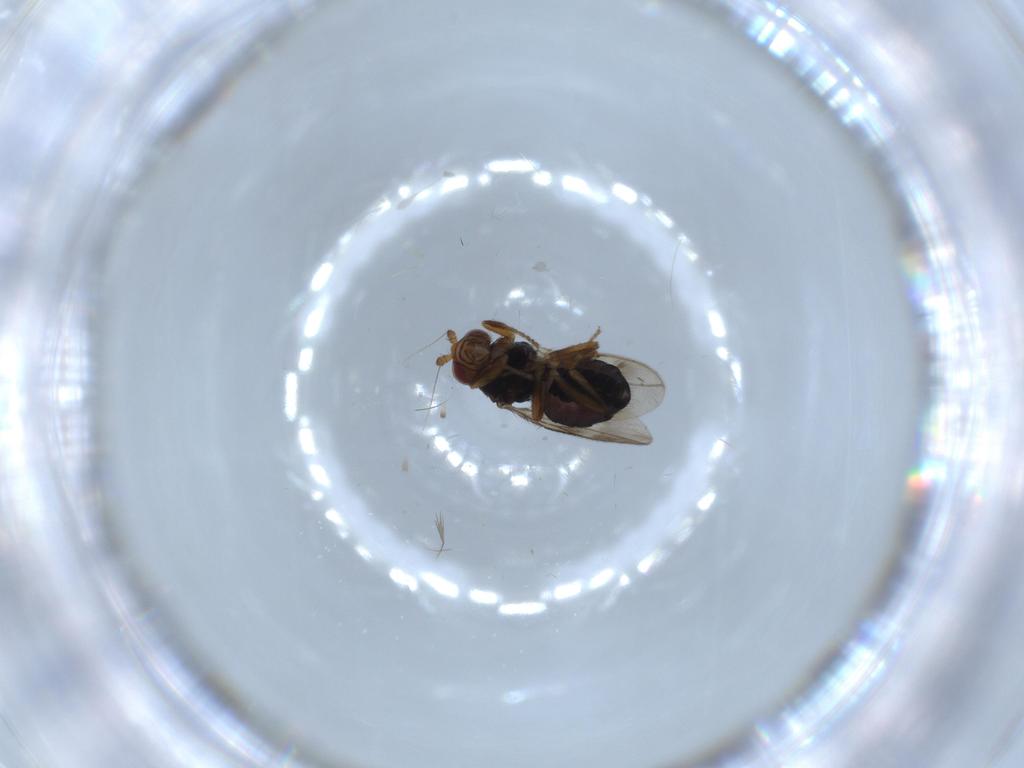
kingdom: Animalia
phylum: Arthropoda
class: Insecta
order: Diptera
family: Sphaeroceridae
